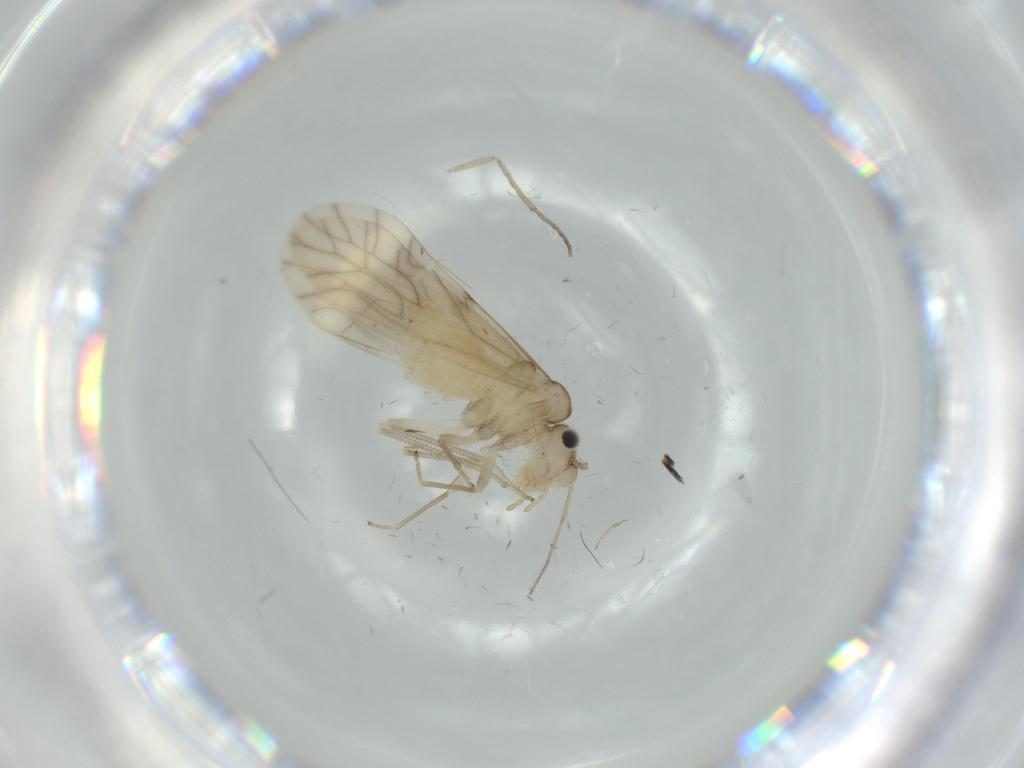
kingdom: Animalia
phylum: Arthropoda
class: Insecta
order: Psocodea
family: Caeciliusidae
